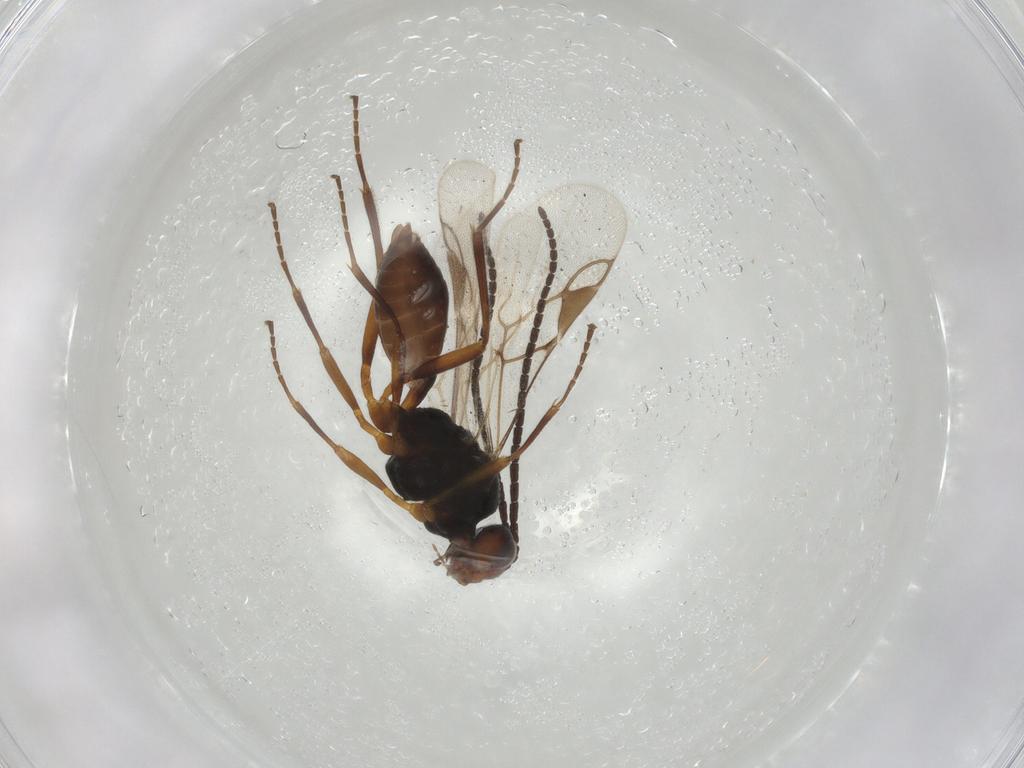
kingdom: Animalia
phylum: Arthropoda
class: Insecta
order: Hymenoptera
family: Braconidae
